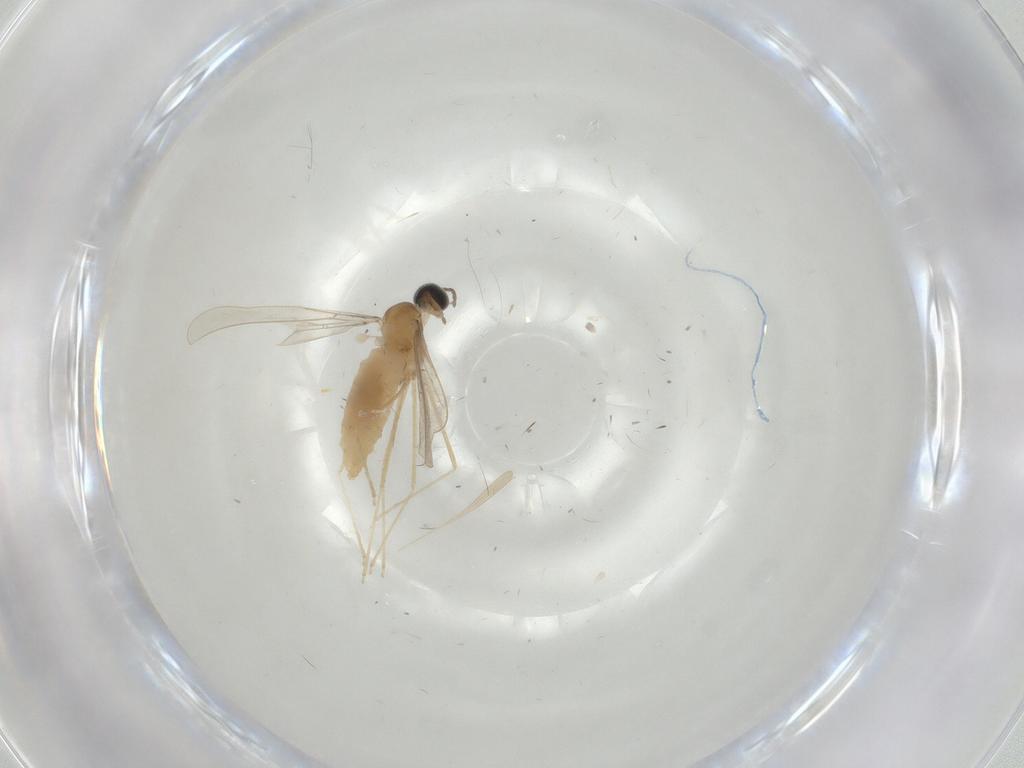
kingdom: Animalia
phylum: Arthropoda
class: Insecta
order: Diptera
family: Cecidomyiidae
